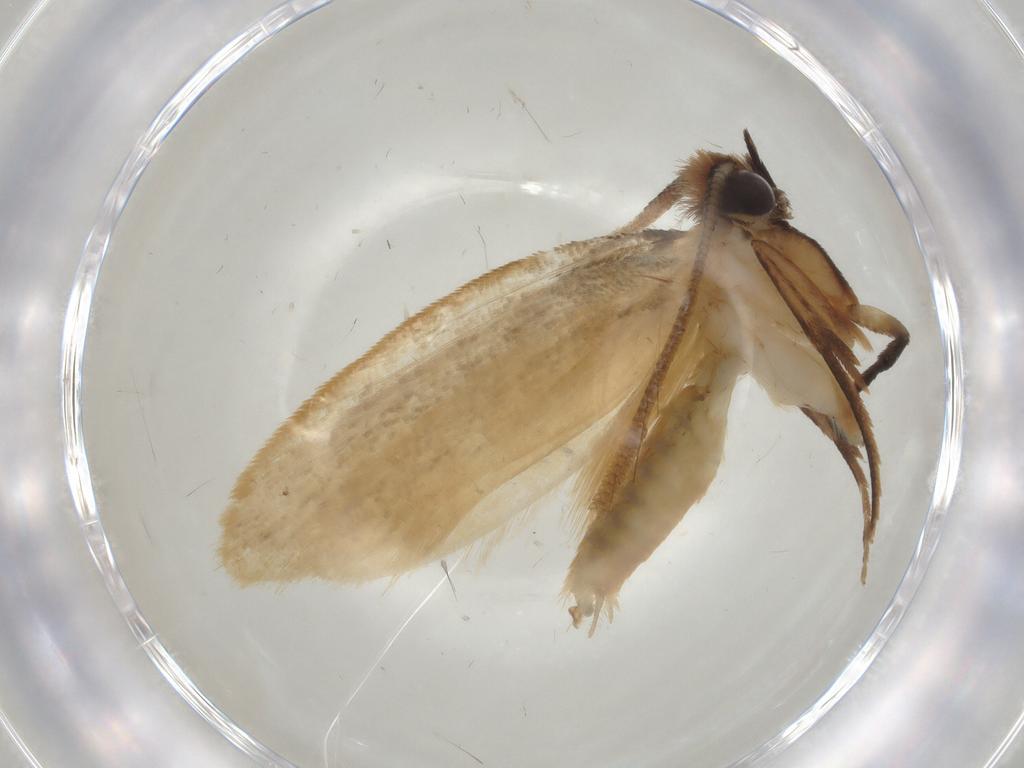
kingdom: Animalia
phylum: Arthropoda
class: Insecta
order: Lepidoptera
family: Tineidae
